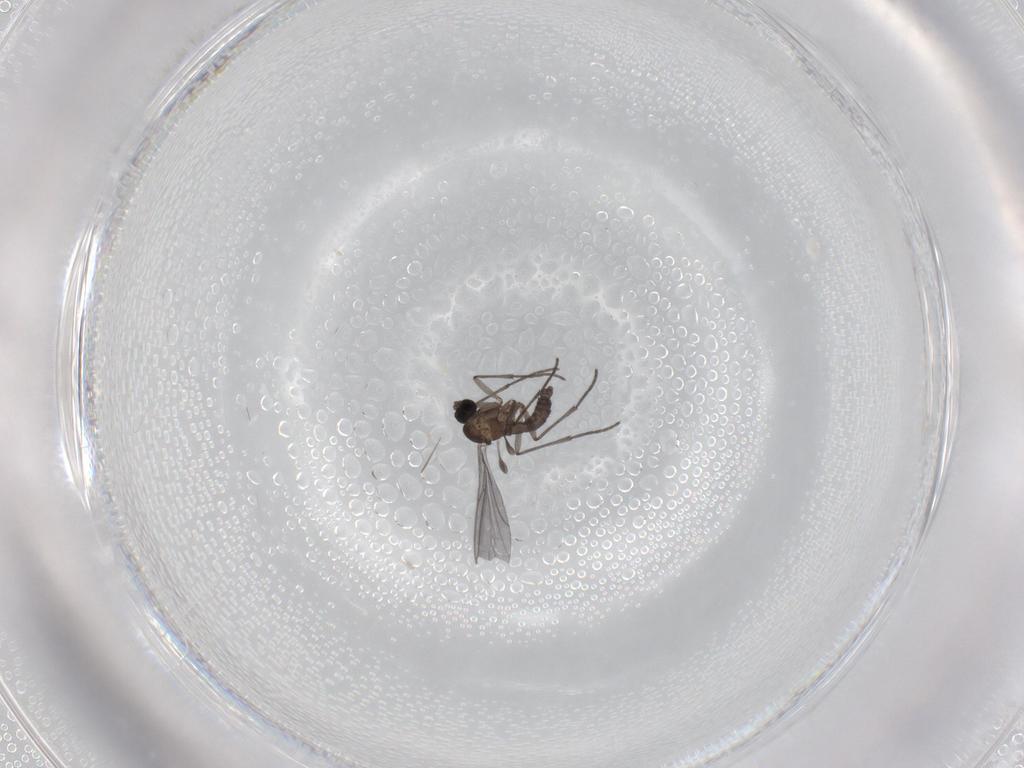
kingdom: Animalia
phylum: Arthropoda
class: Insecta
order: Diptera
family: Sciaridae
